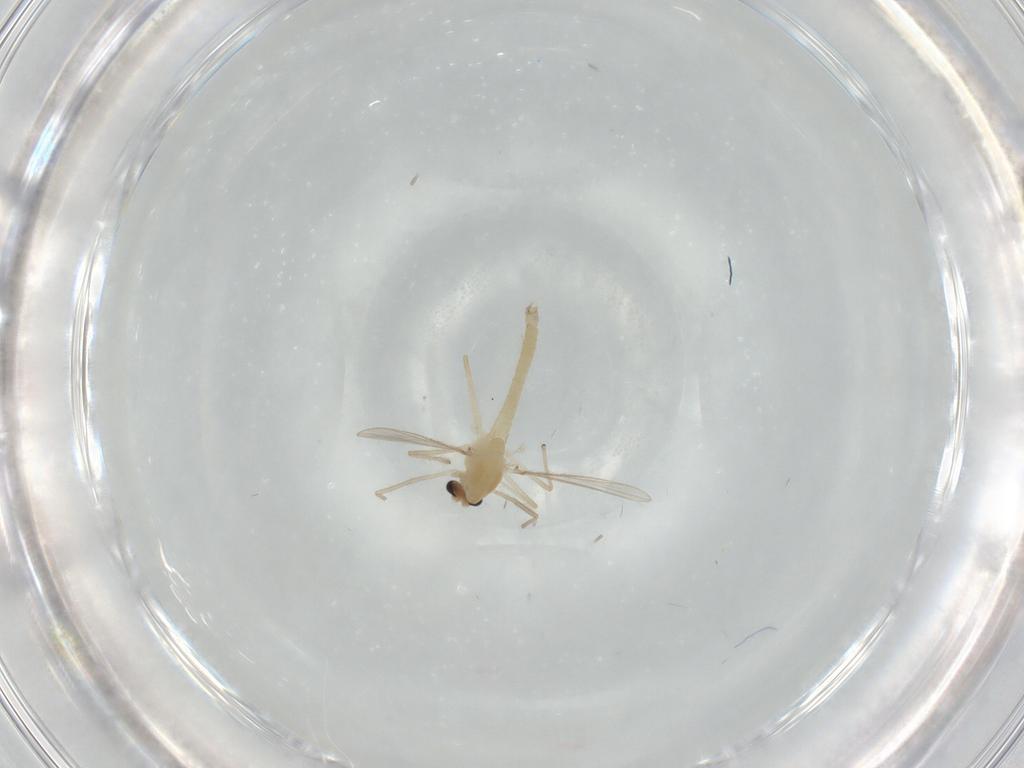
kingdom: Animalia
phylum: Arthropoda
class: Insecta
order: Diptera
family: Chironomidae
